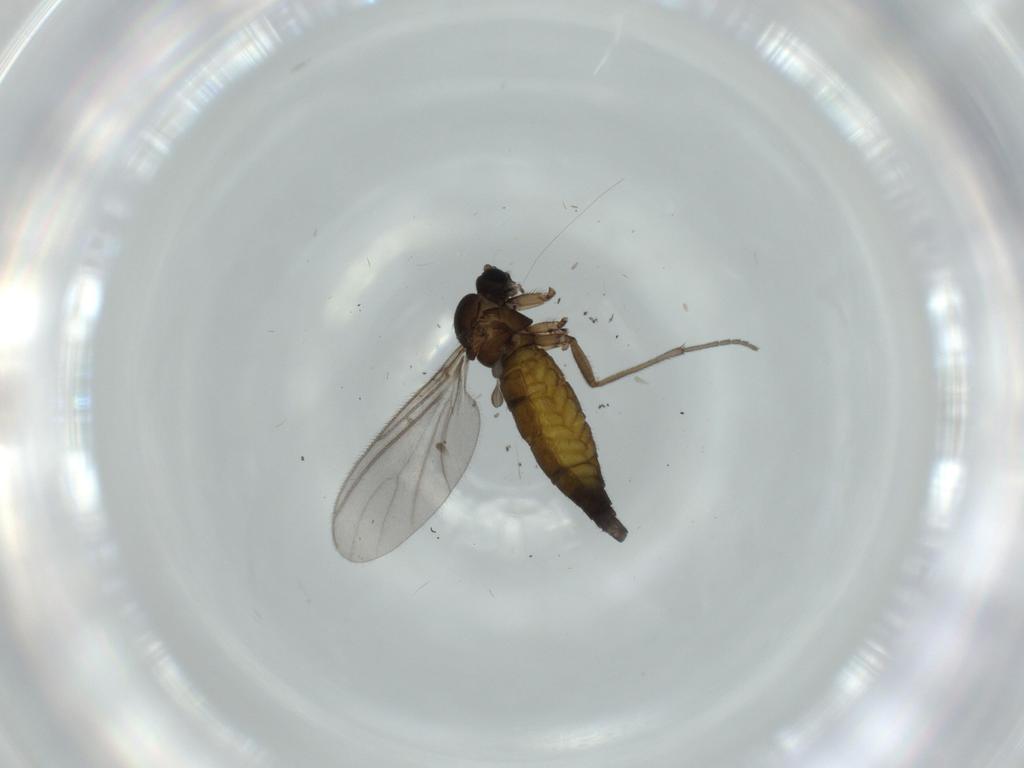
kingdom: Animalia
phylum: Arthropoda
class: Insecta
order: Diptera
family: Sciaridae
